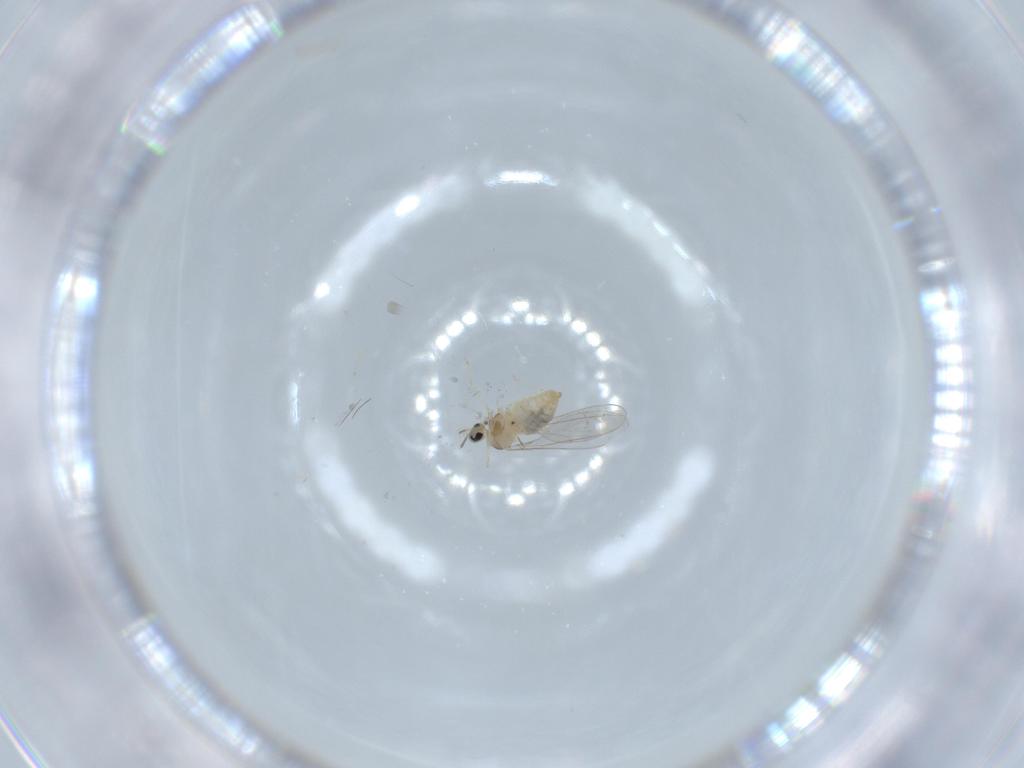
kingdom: Animalia
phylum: Arthropoda
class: Insecta
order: Diptera
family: Cecidomyiidae
